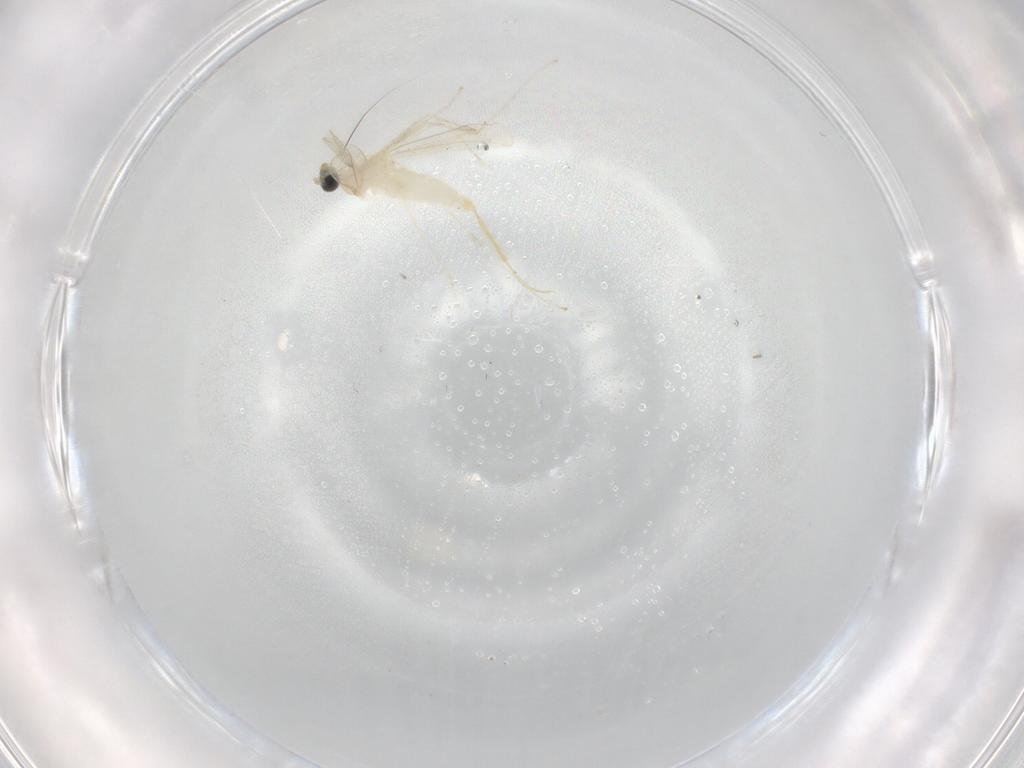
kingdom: Animalia
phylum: Arthropoda
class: Insecta
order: Diptera
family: Cecidomyiidae
